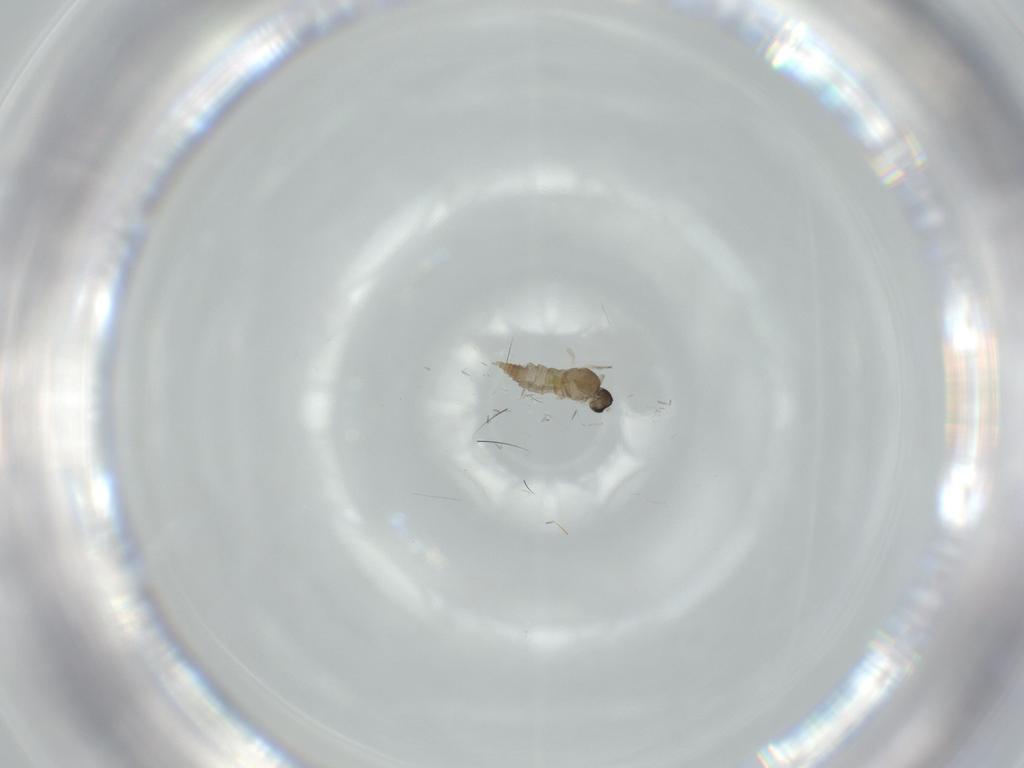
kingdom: Animalia
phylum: Arthropoda
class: Insecta
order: Diptera
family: Cecidomyiidae
